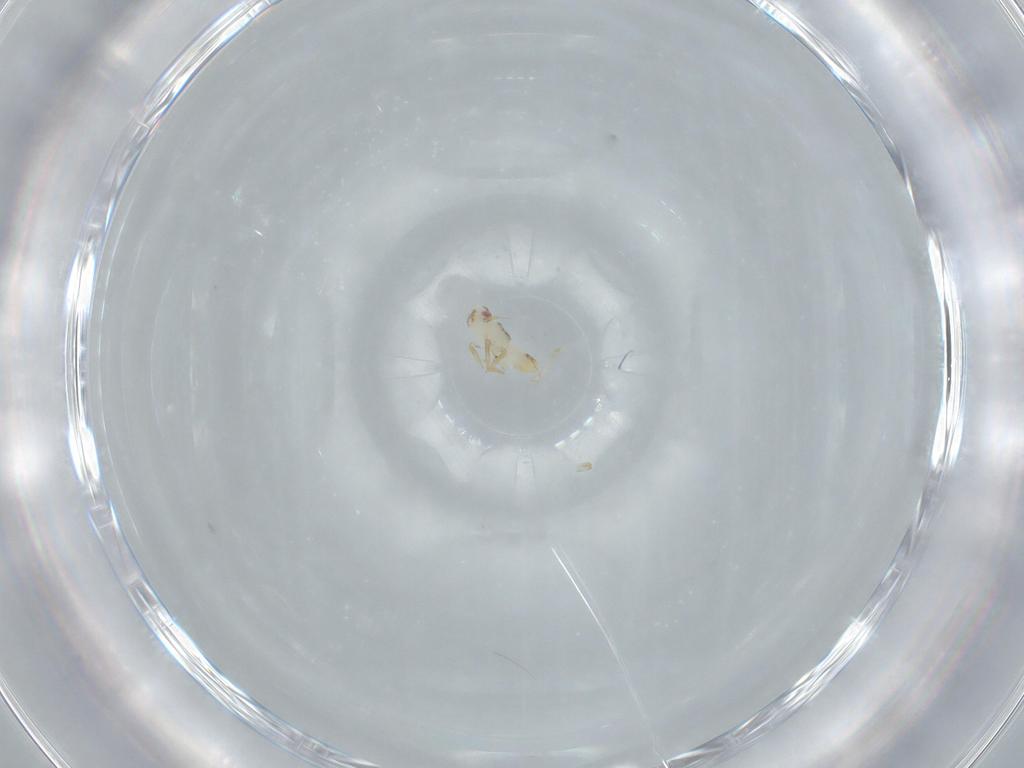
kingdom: Animalia
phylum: Arthropoda
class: Insecta
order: Hemiptera
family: Delphacidae
